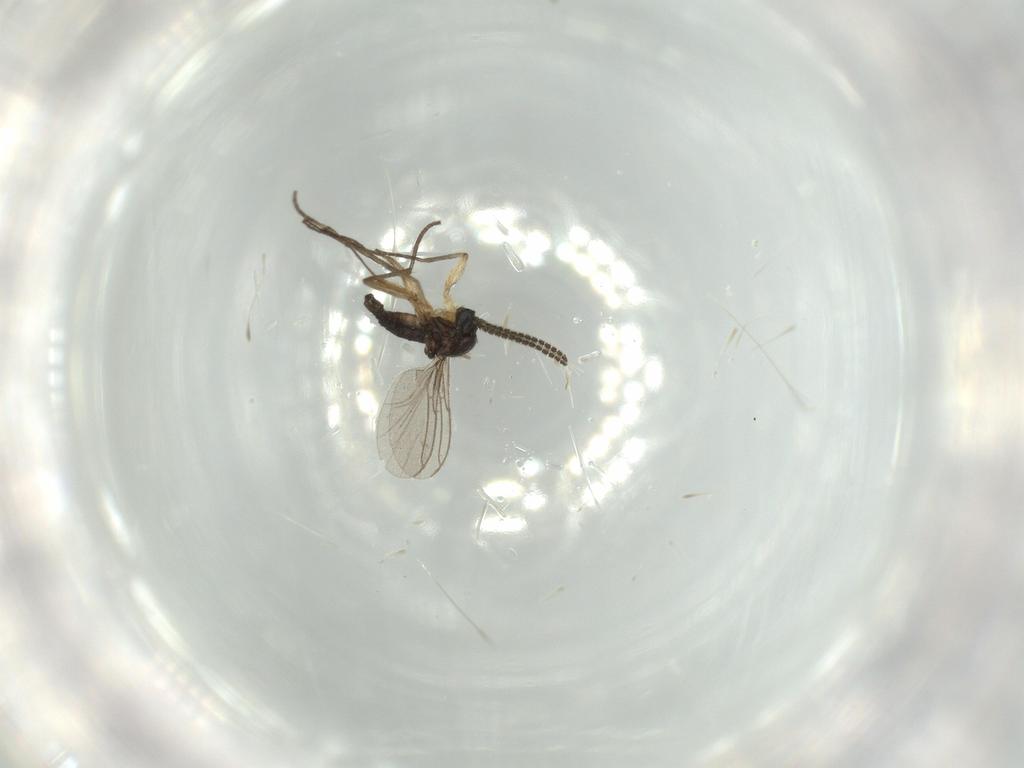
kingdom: Animalia
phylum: Arthropoda
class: Insecta
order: Diptera
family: Sciaridae
